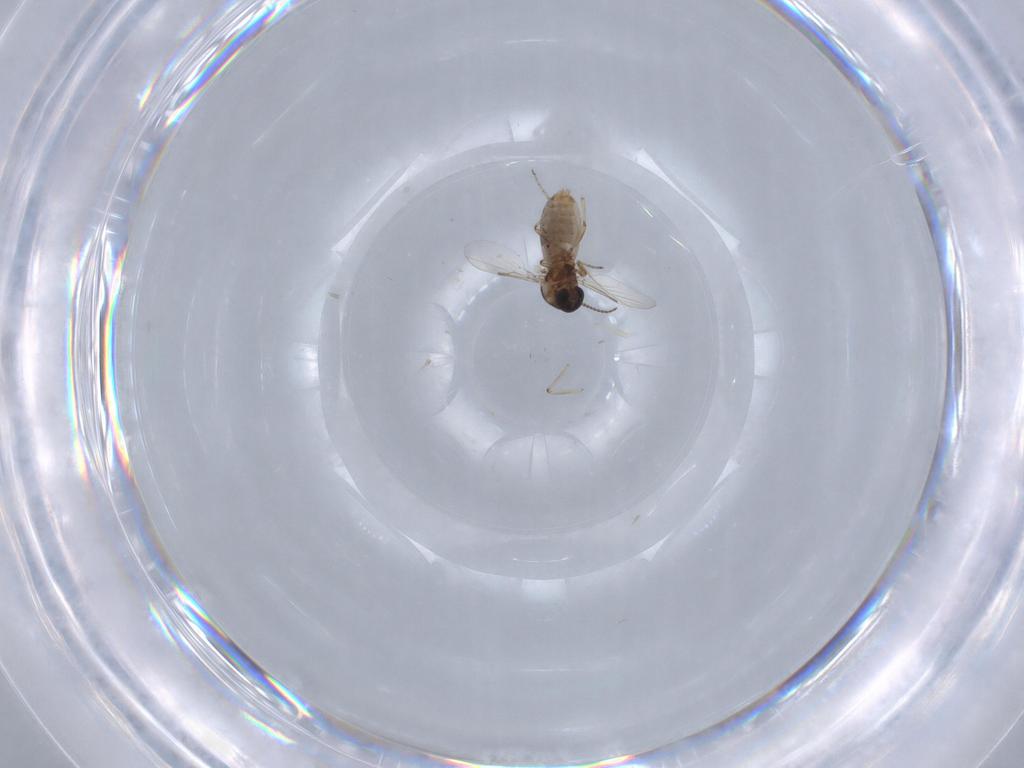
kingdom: Animalia
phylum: Arthropoda
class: Insecta
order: Diptera
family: Ceratopogonidae
